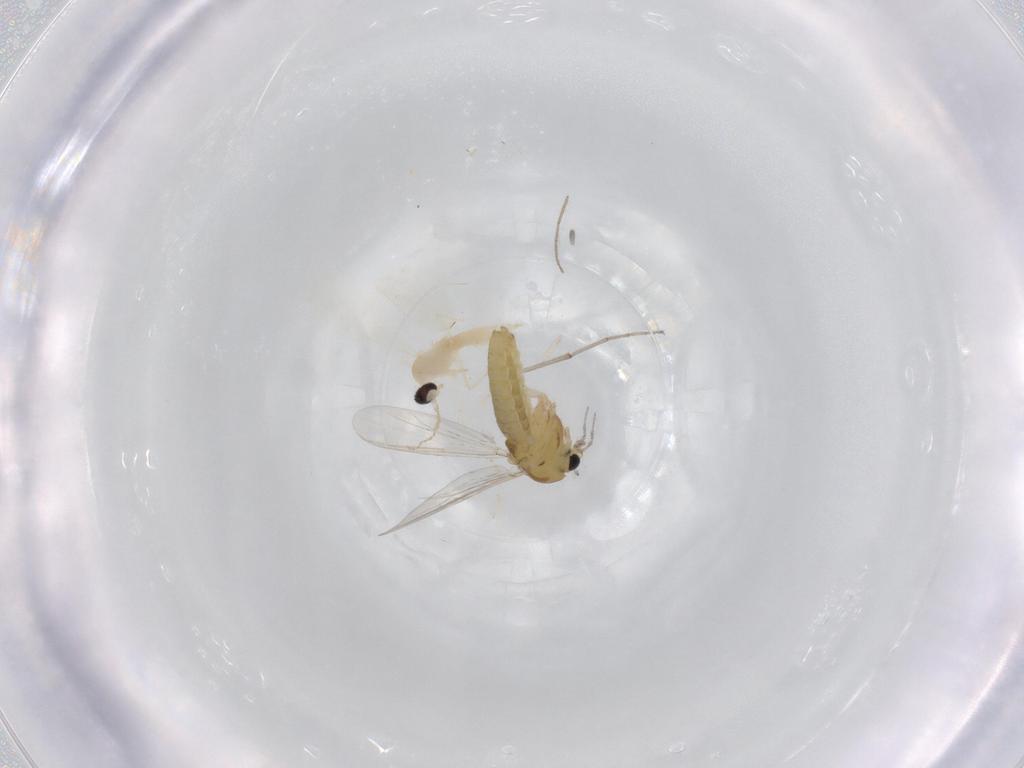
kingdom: Animalia
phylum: Arthropoda
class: Insecta
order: Diptera
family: Cecidomyiidae
